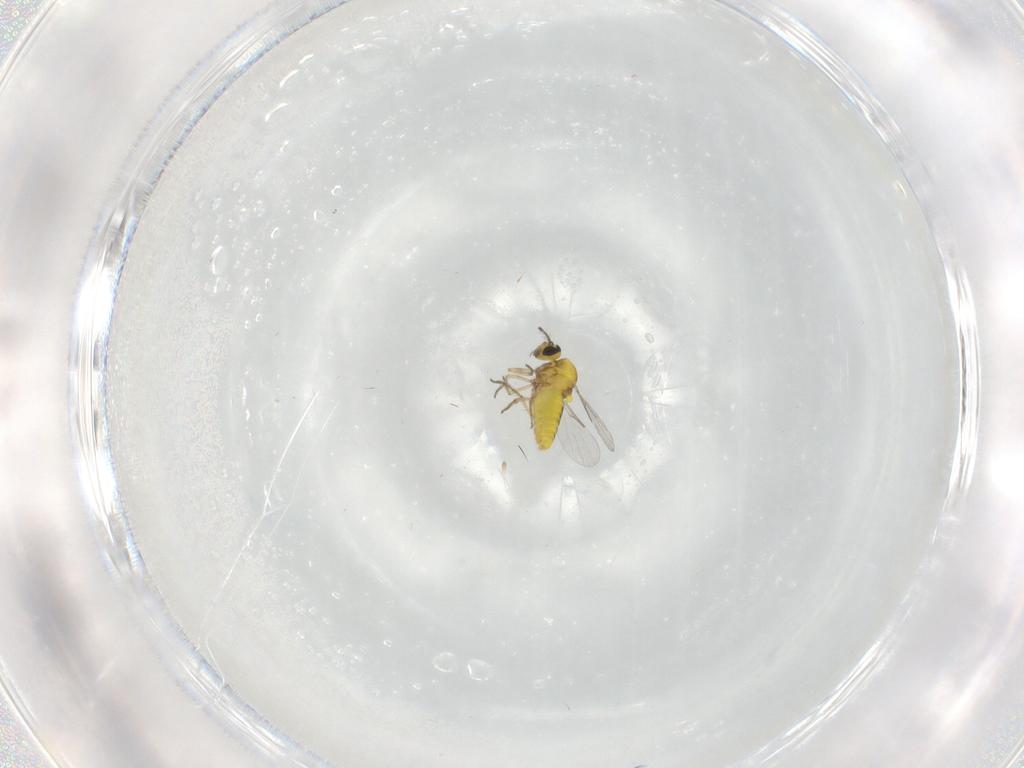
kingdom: Animalia
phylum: Arthropoda
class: Insecta
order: Diptera
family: Ceratopogonidae
